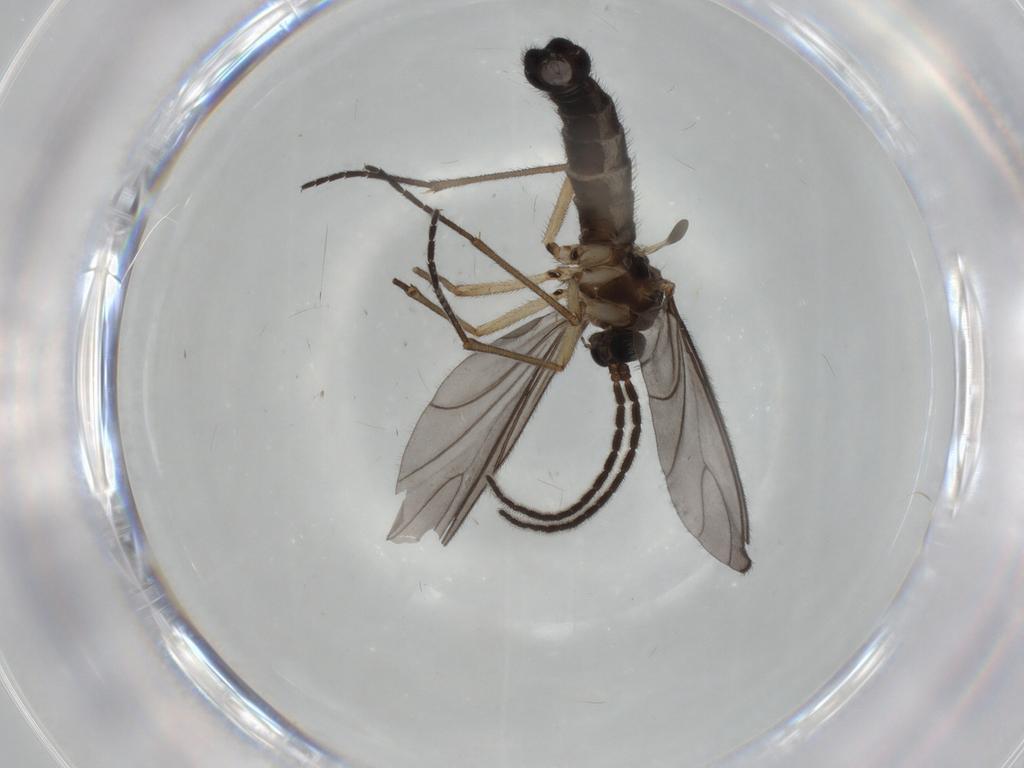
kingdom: Animalia
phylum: Arthropoda
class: Insecta
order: Diptera
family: Sciaridae
